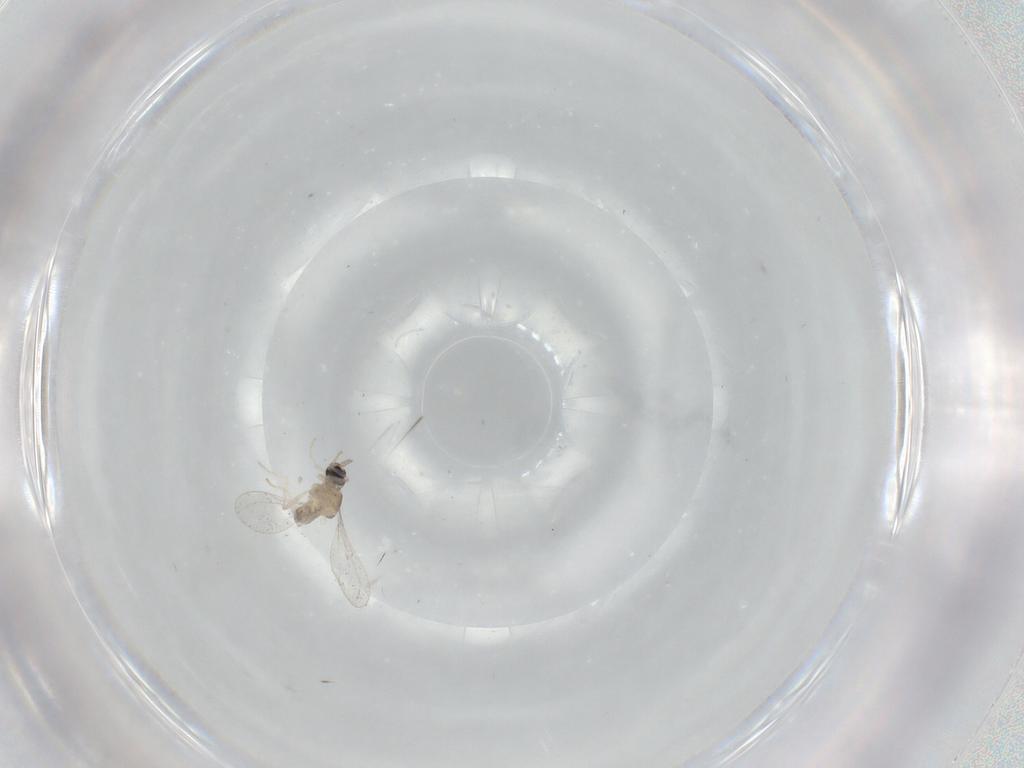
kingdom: Animalia
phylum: Arthropoda
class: Insecta
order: Diptera
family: Cecidomyiidae
